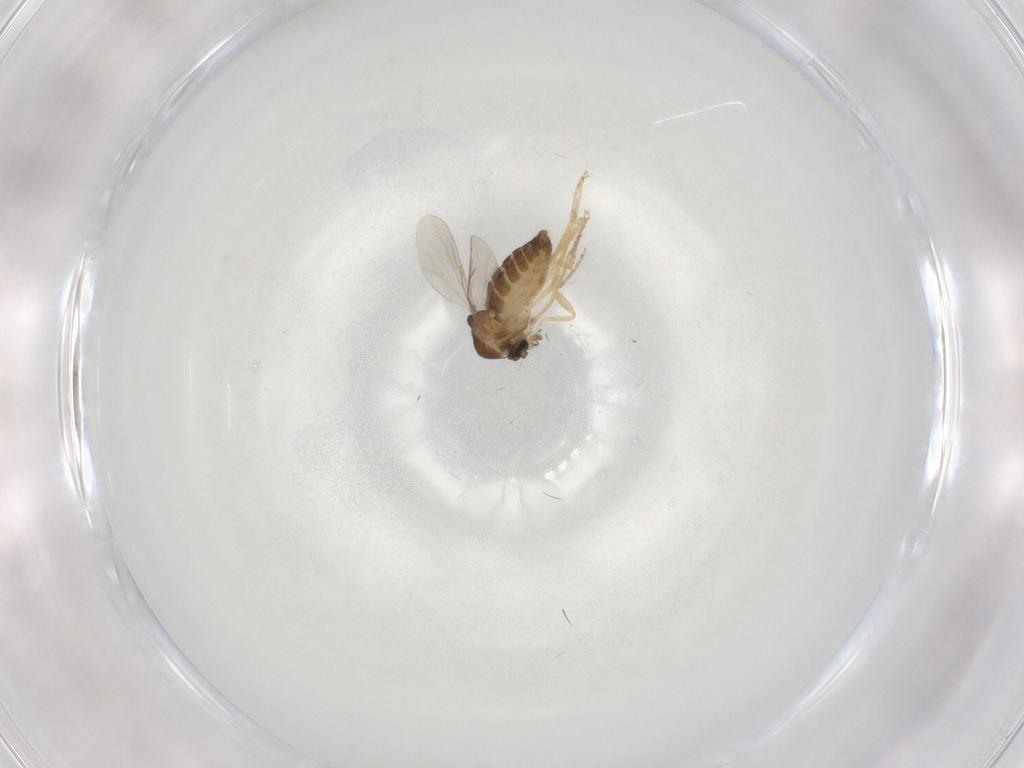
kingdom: Animalia
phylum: Arthropoda
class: Insecta
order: Diptera
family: Ceratopogonidae
